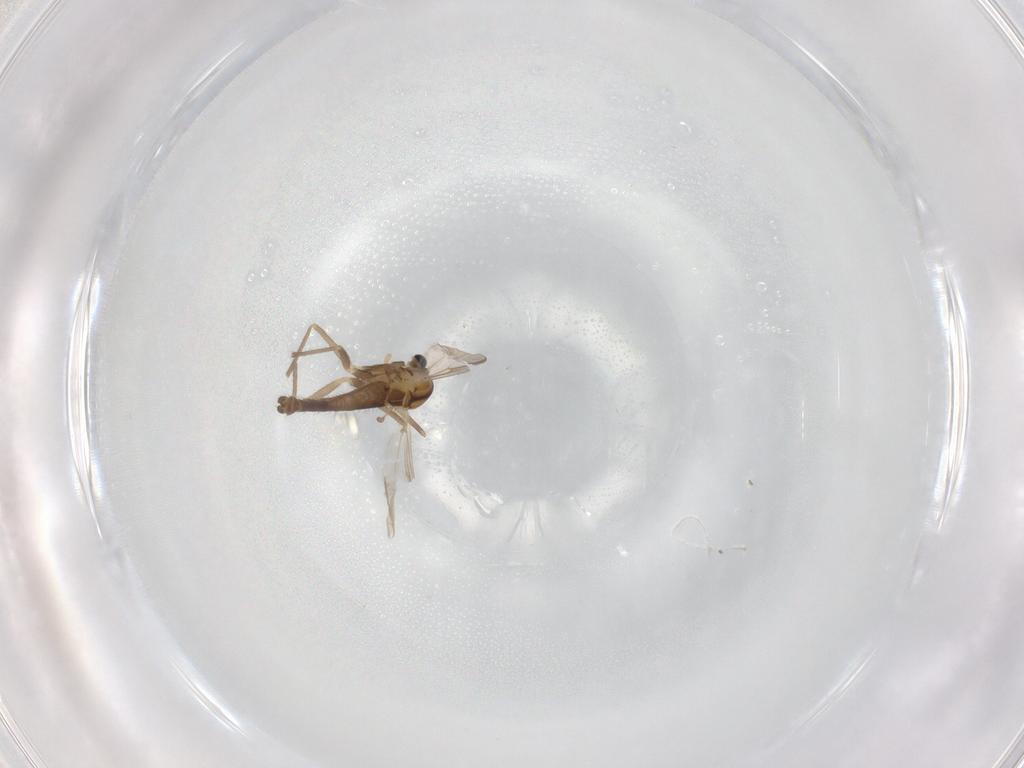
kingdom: Animalia
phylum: Arthropoda
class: Insecta
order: Diptera
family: Chironomidae
